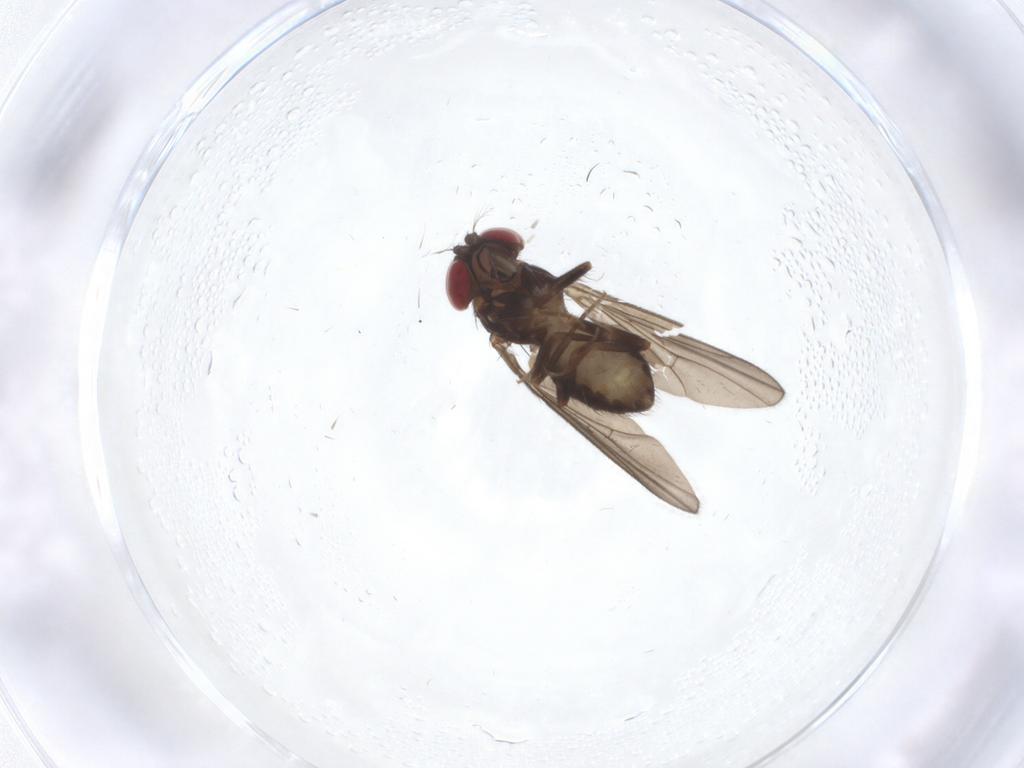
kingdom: Animalia
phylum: Arthropoda
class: Insecta
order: Diptera
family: Drosophilidae
